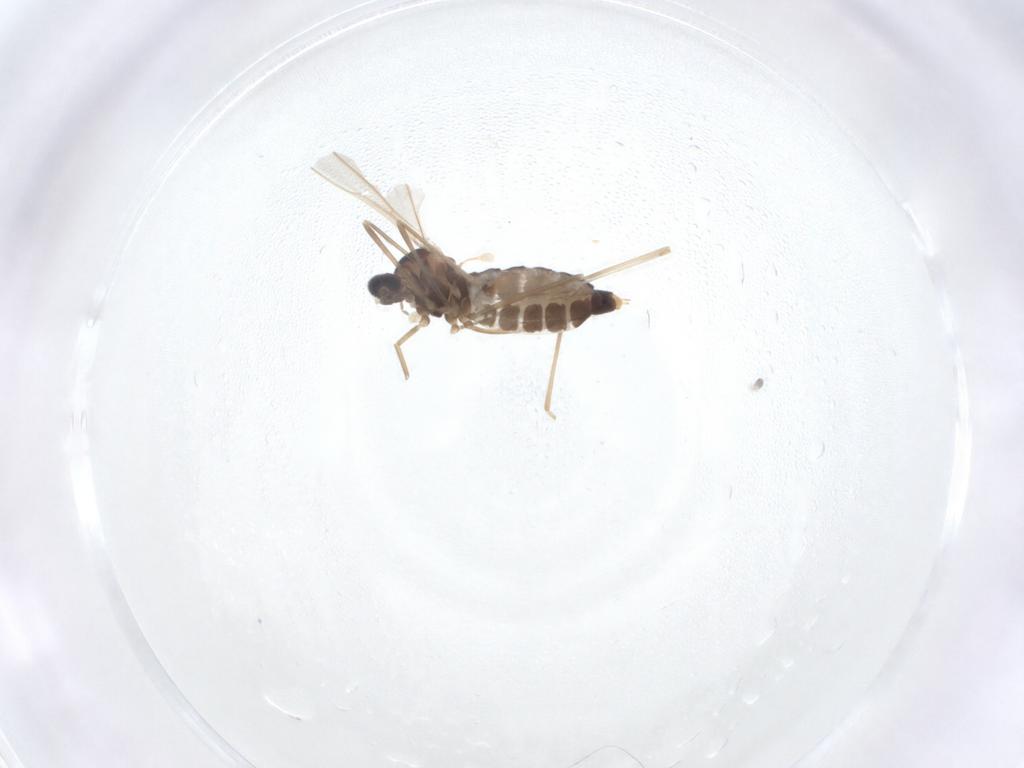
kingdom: Animalia
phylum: Arthropoda
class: Insecta
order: Diptera
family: Cecidomyiidae
